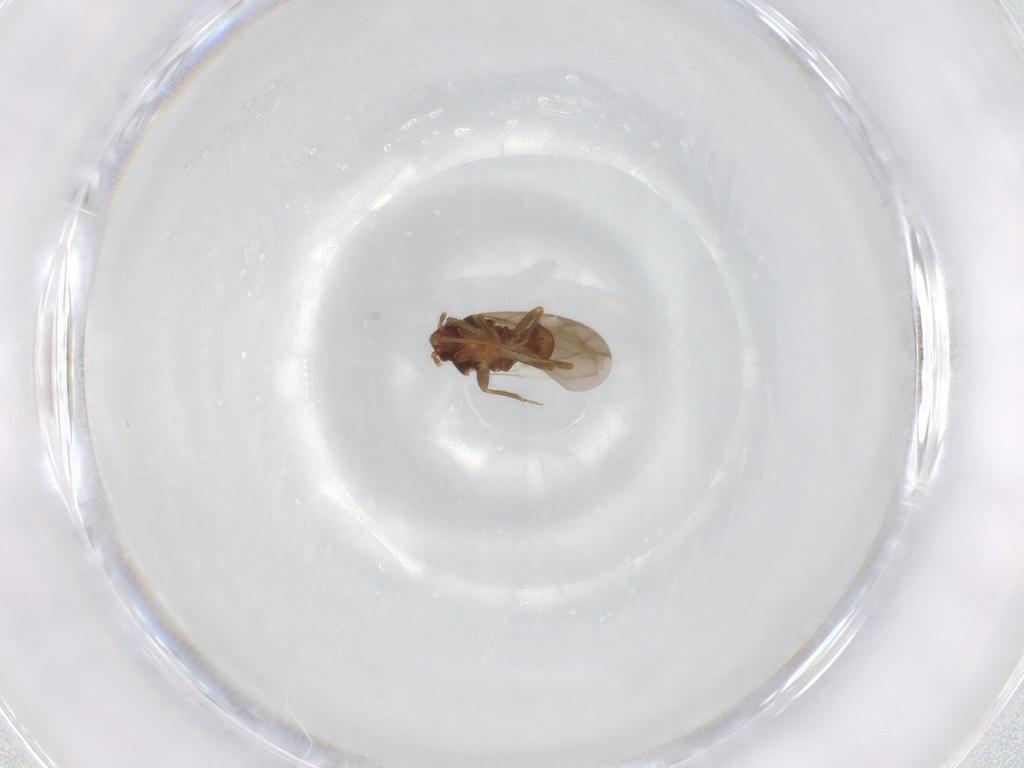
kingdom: Animalia
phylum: Arthropoda
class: Insecta
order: Hemiptera
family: Ceratocombidae
